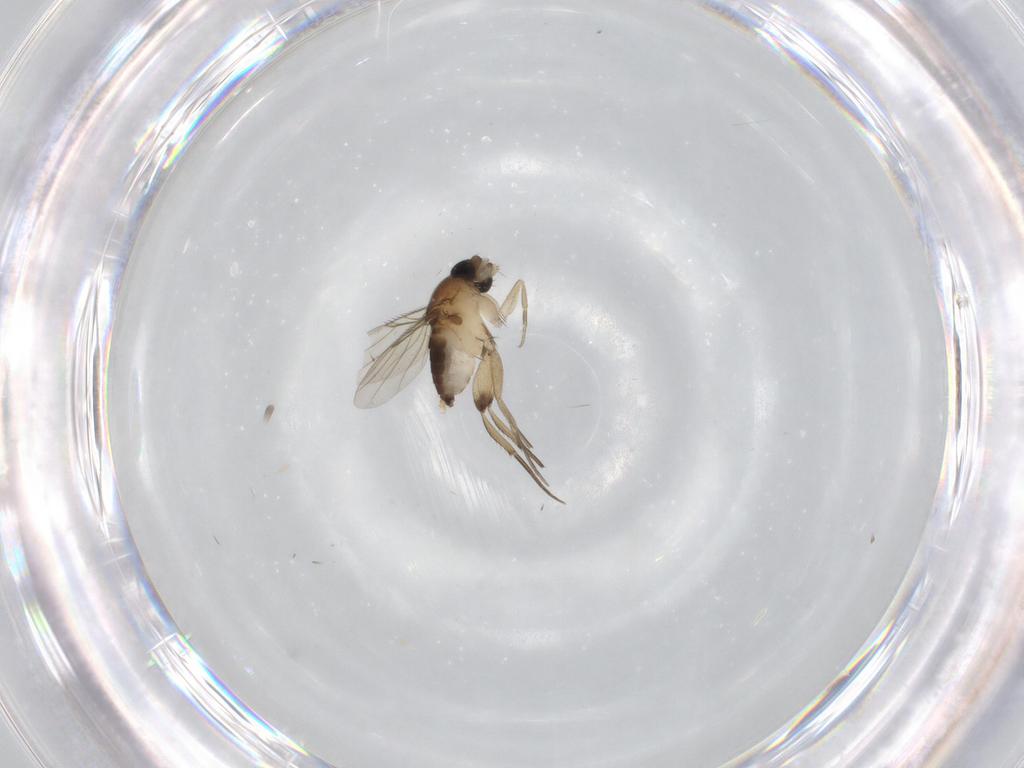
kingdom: Animalia
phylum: Arthropoda
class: Insecta
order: Diptera
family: Phoridae
